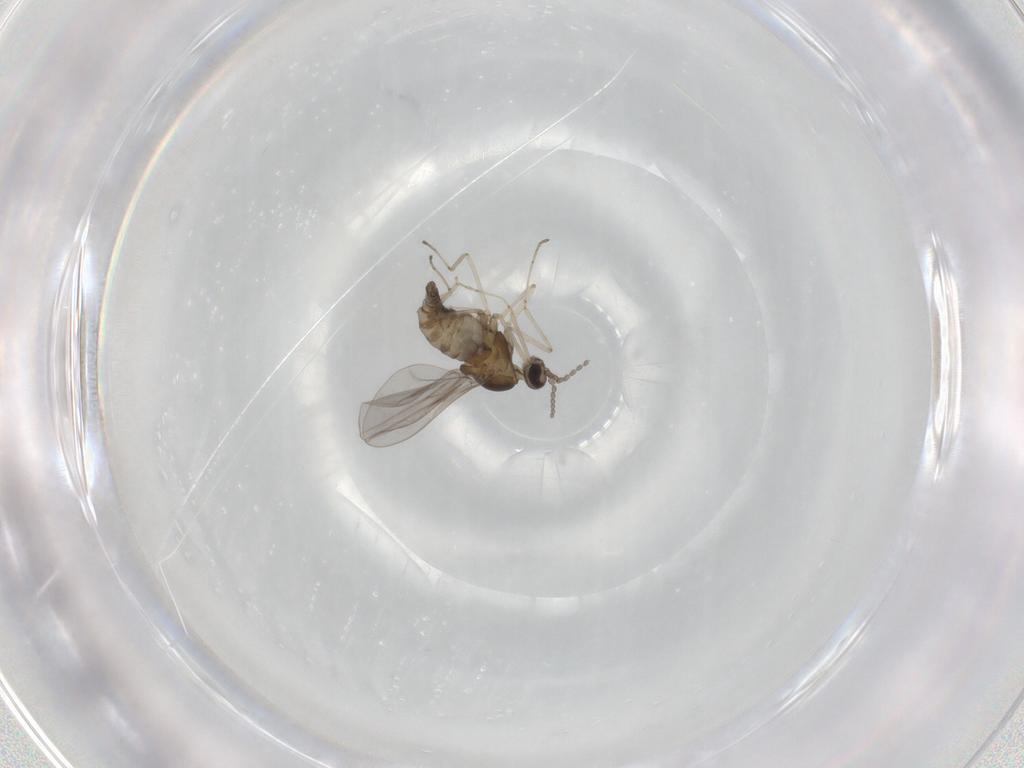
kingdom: Animalia
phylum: Arthropoda
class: Insecta
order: Diptera
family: Cecidomyiidae
